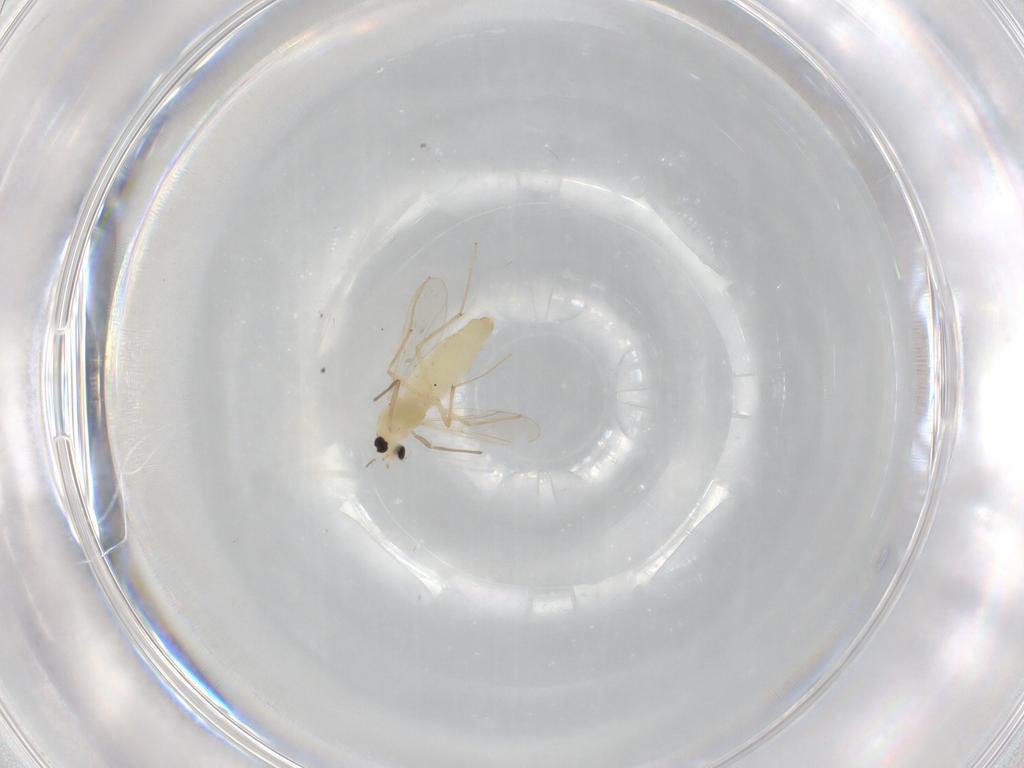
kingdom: Animalia
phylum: Arthropoda
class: Insecta
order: Diptera
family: Chironomidae
